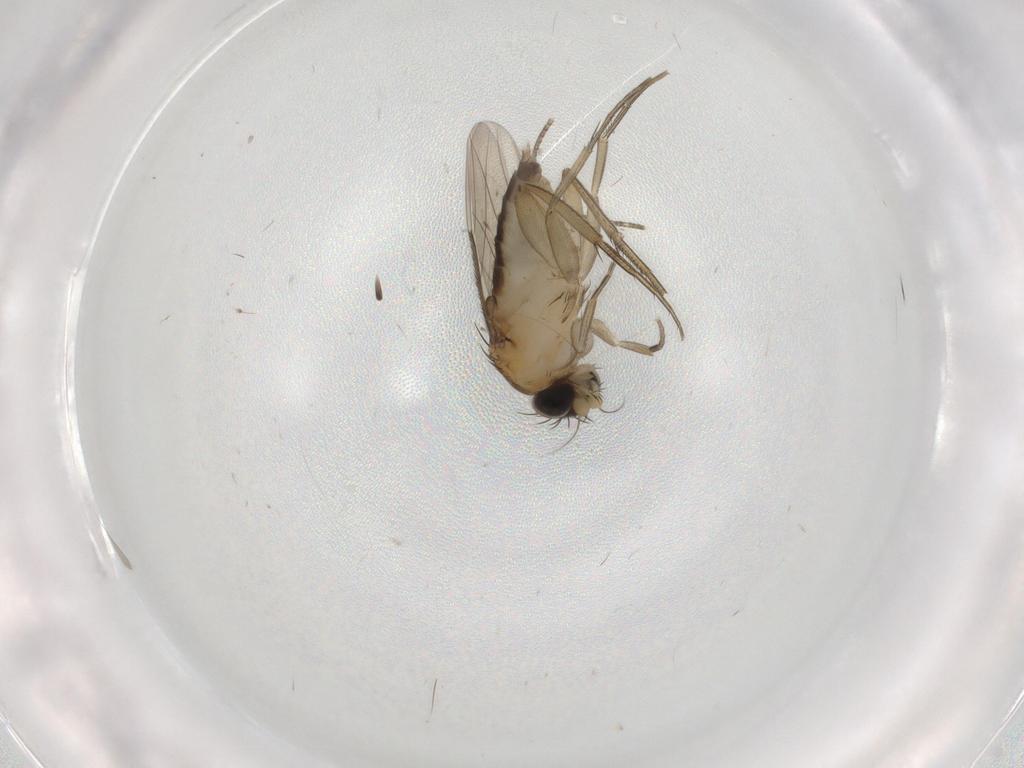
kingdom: Animalia
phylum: Arthropoda
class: Insecta
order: Diptera
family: Phoridae
